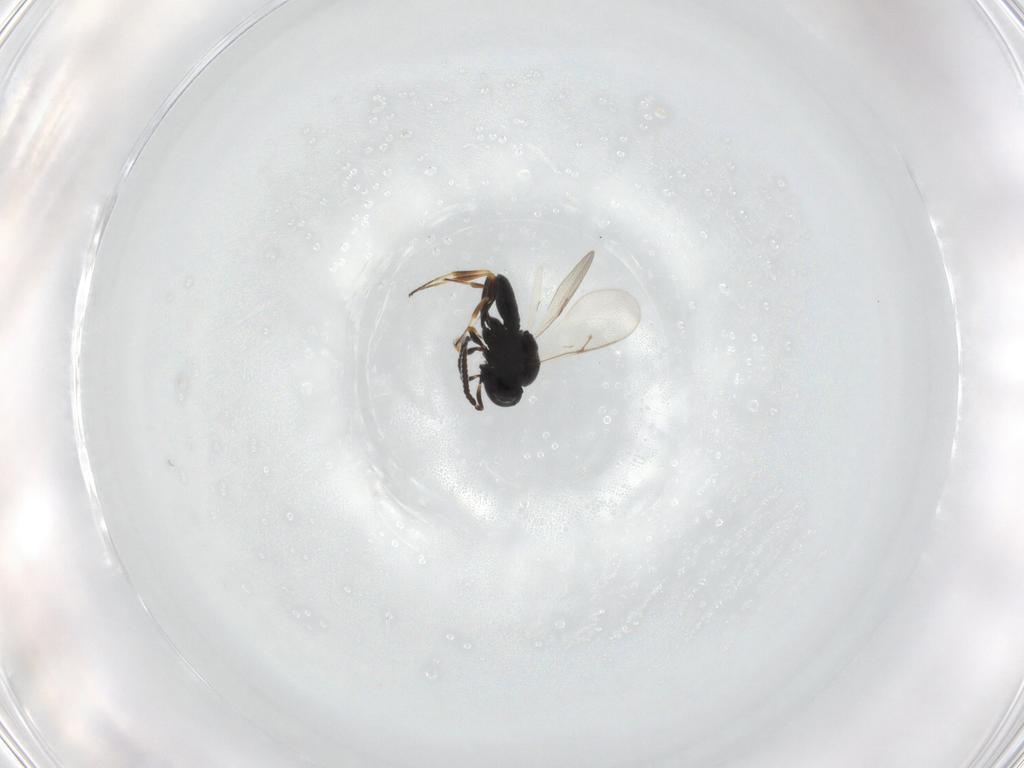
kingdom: Animalia
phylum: Arthropoda
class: Insecta
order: Hymenoptera
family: Scelionidae
